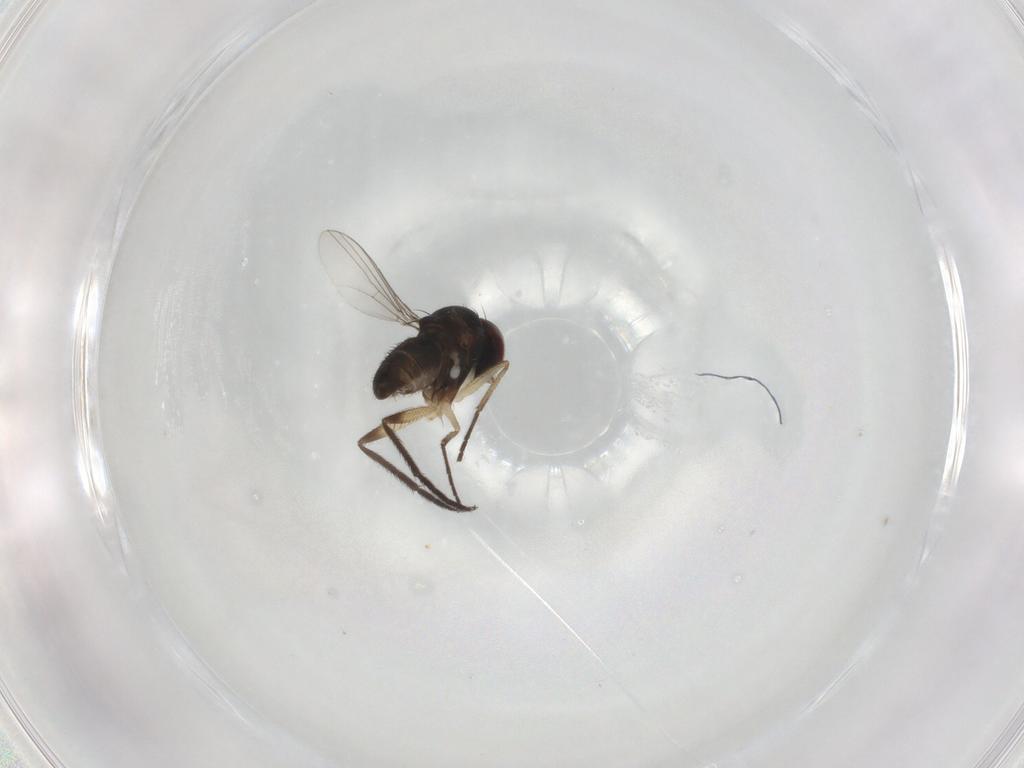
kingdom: Animalia
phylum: Arthropoda
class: Insecta
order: Diptera
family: Dolichopodidae
